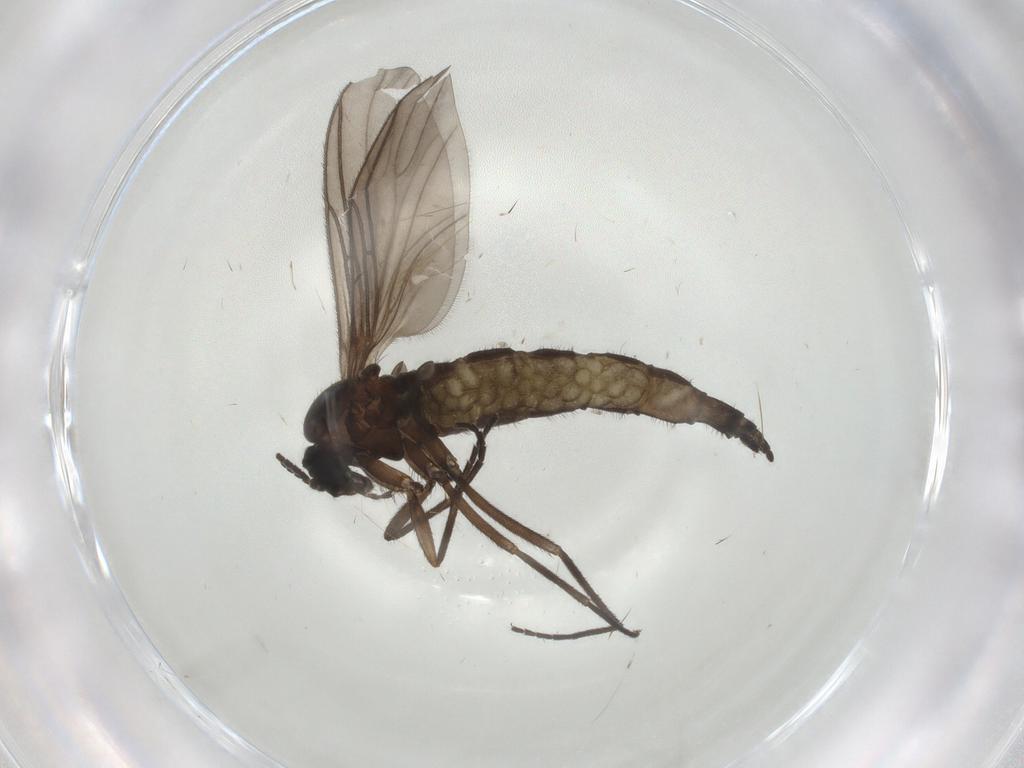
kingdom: Animalia
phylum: Arthropoda
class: Insecta
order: Diptera
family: Sciaridae
